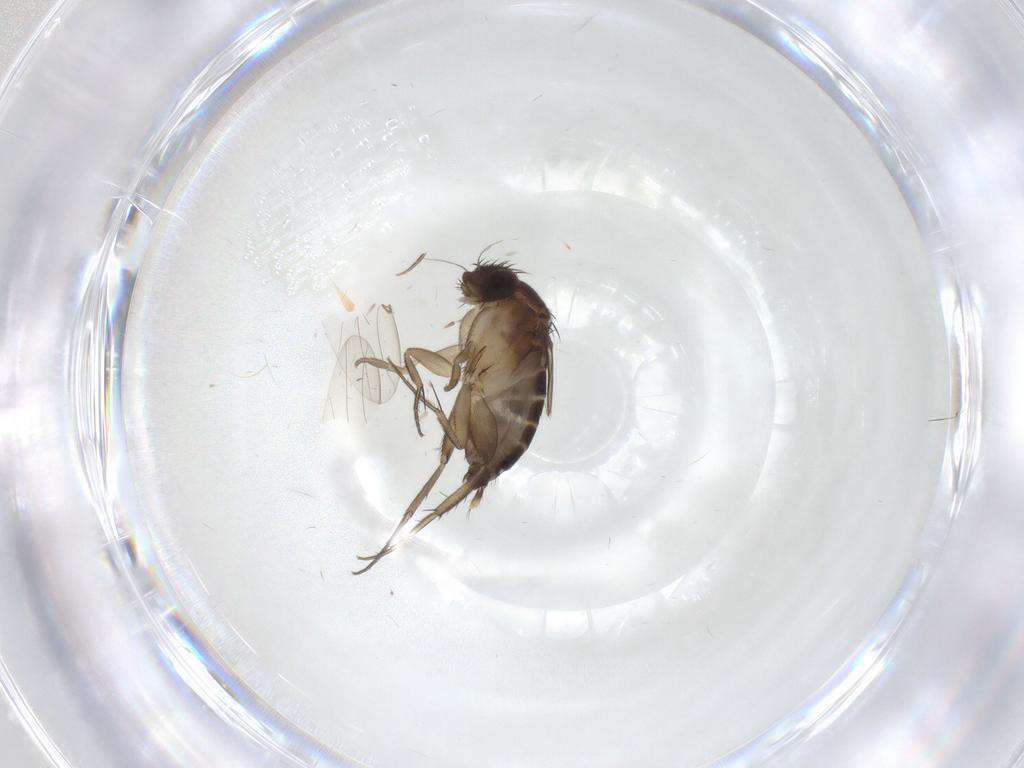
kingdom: Animalia
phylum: Arthropoda
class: Insecta
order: Diptera
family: Phoridae
